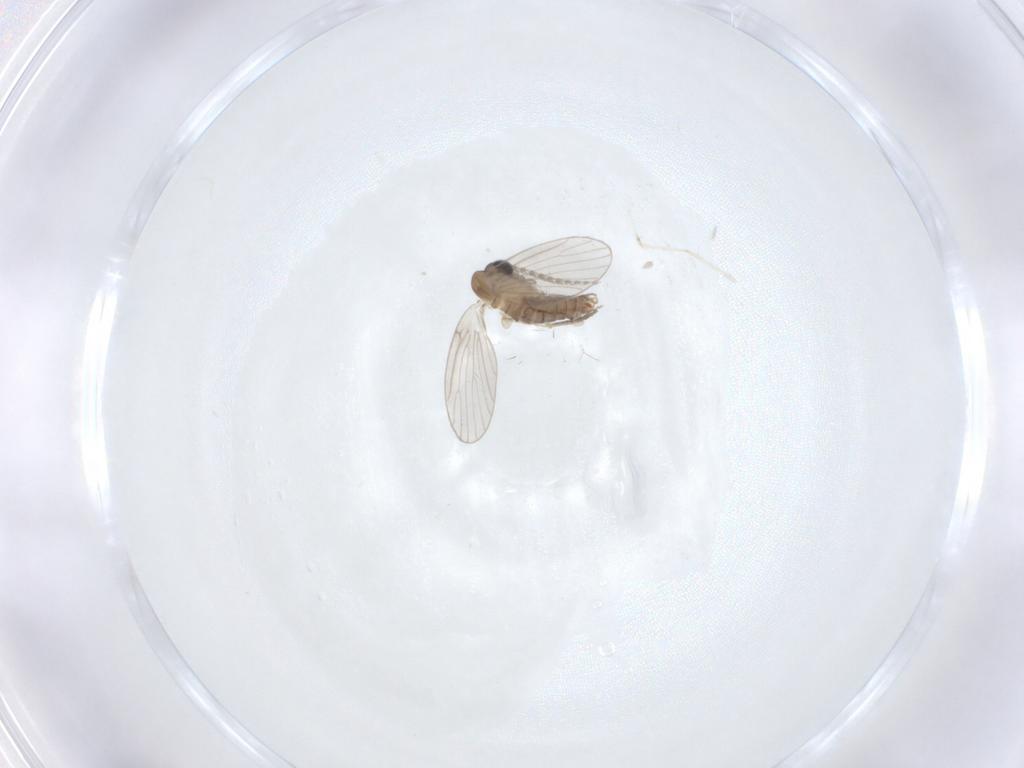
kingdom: Animalia
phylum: Arthropoda
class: Insecta
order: Diptera
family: Cecidomyiidae
